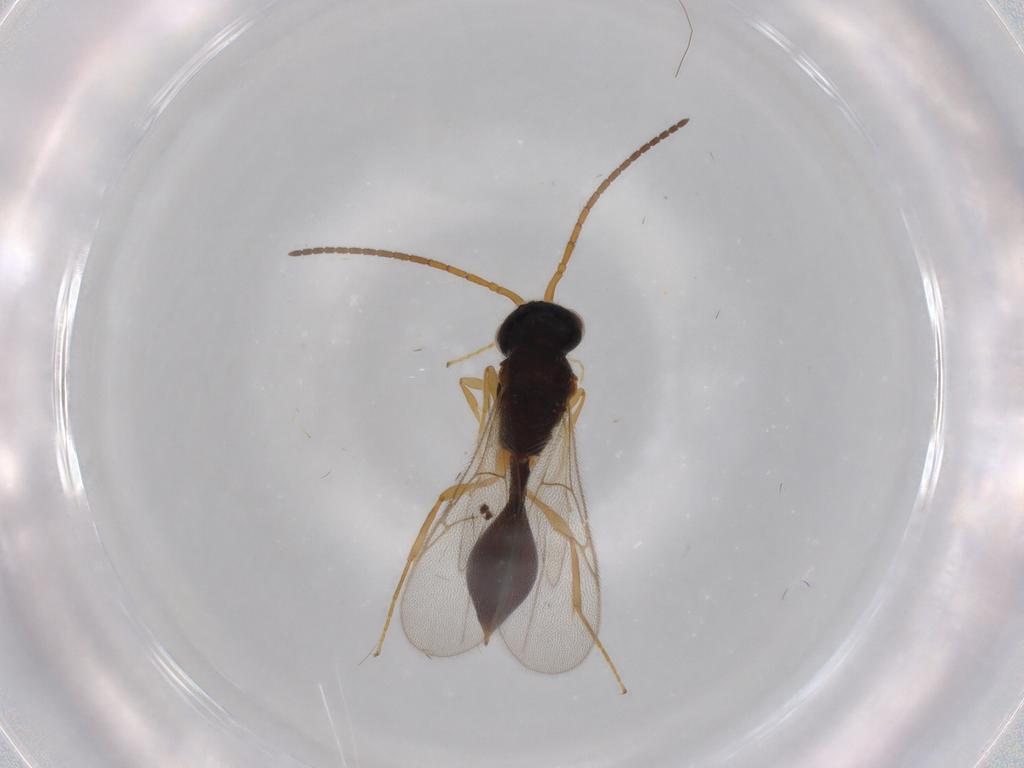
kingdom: Animalia
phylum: Arthropoda
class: Insecta
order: Hymenoptera
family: Diapriidae
